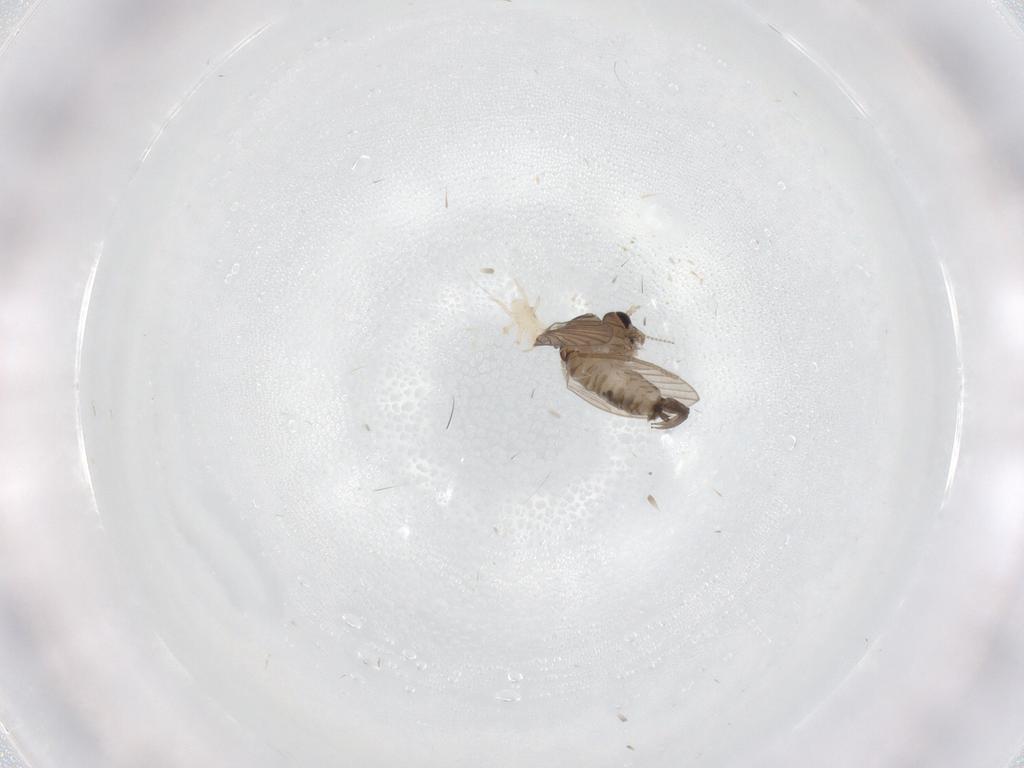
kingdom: Animalia
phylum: Arthropoda
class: Insecta
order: Diptera
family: Psychodidae
